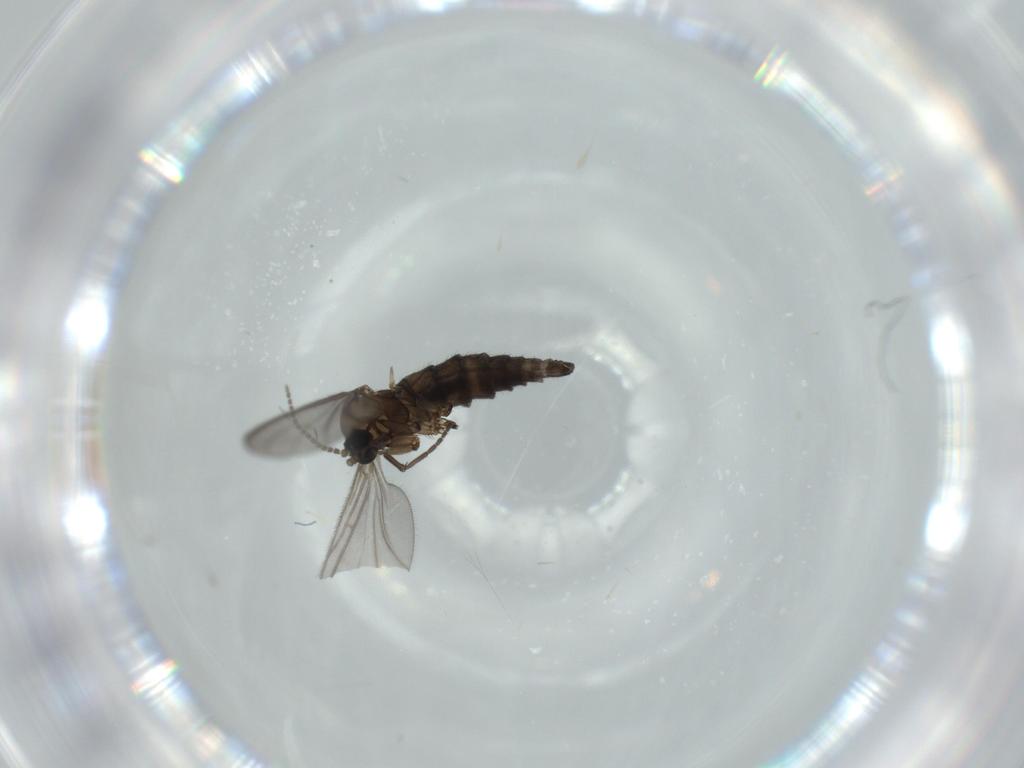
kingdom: Animalia
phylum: Arthropoda
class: Insecta
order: Diptera
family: Sciaridae
